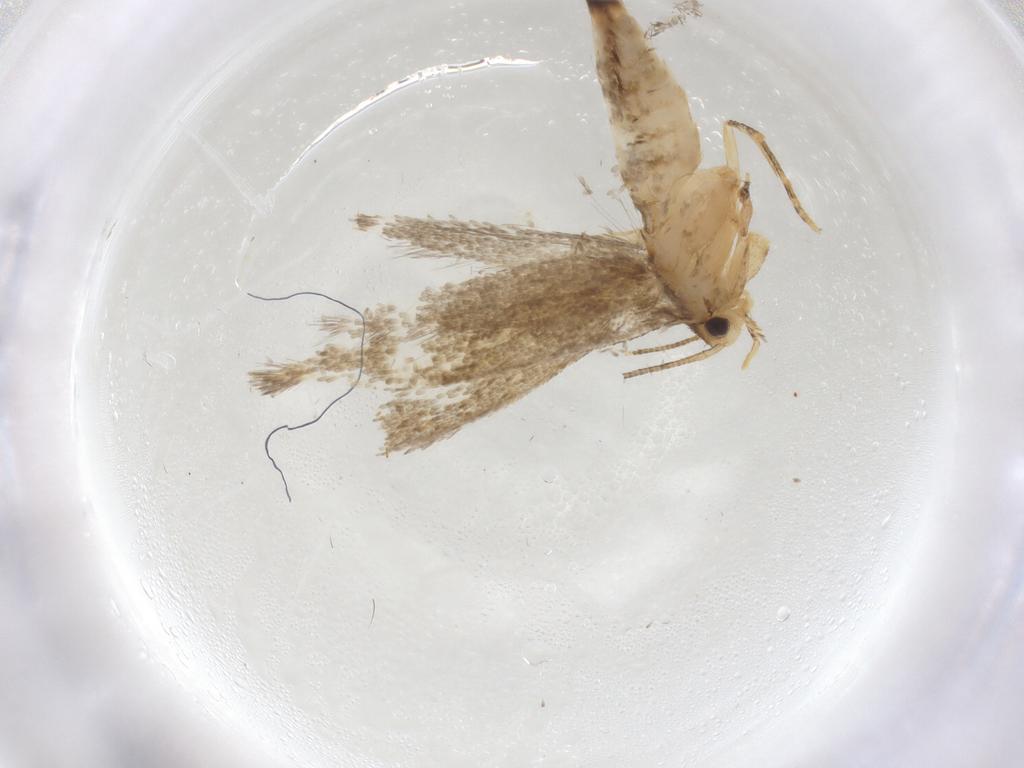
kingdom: Animalia
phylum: Arthropoda
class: Insecta
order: Lepidoptera
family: Tineidae
